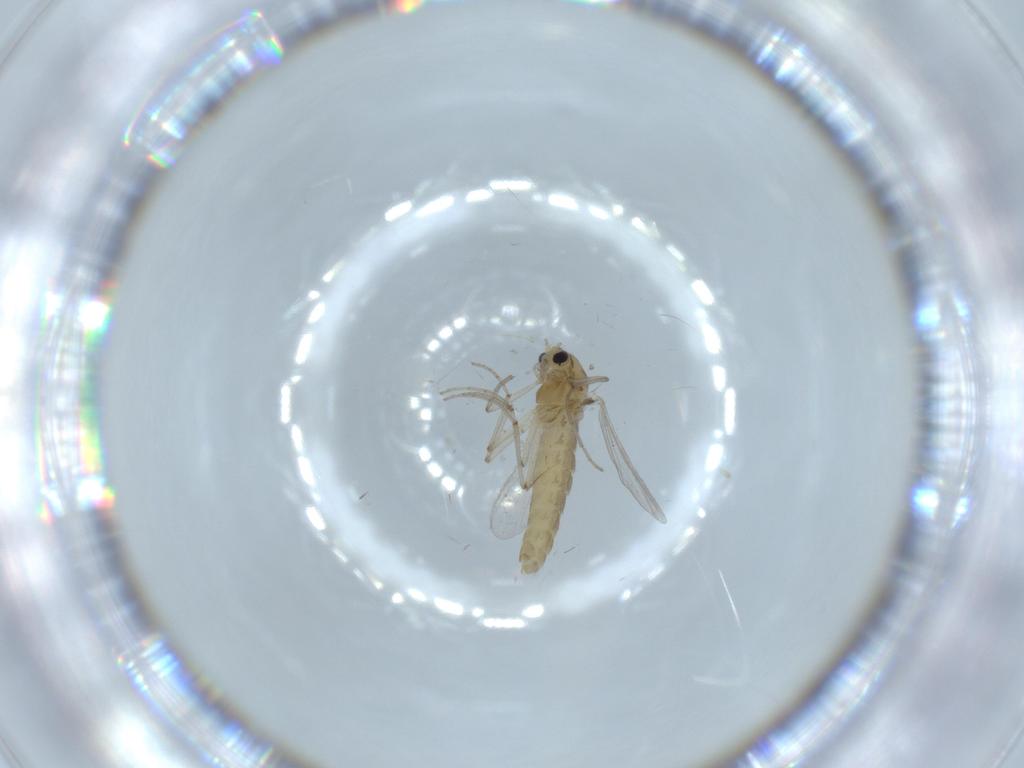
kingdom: Animalia
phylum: Arthropoda
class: Insecta
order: Diptera
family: Chironomidae
